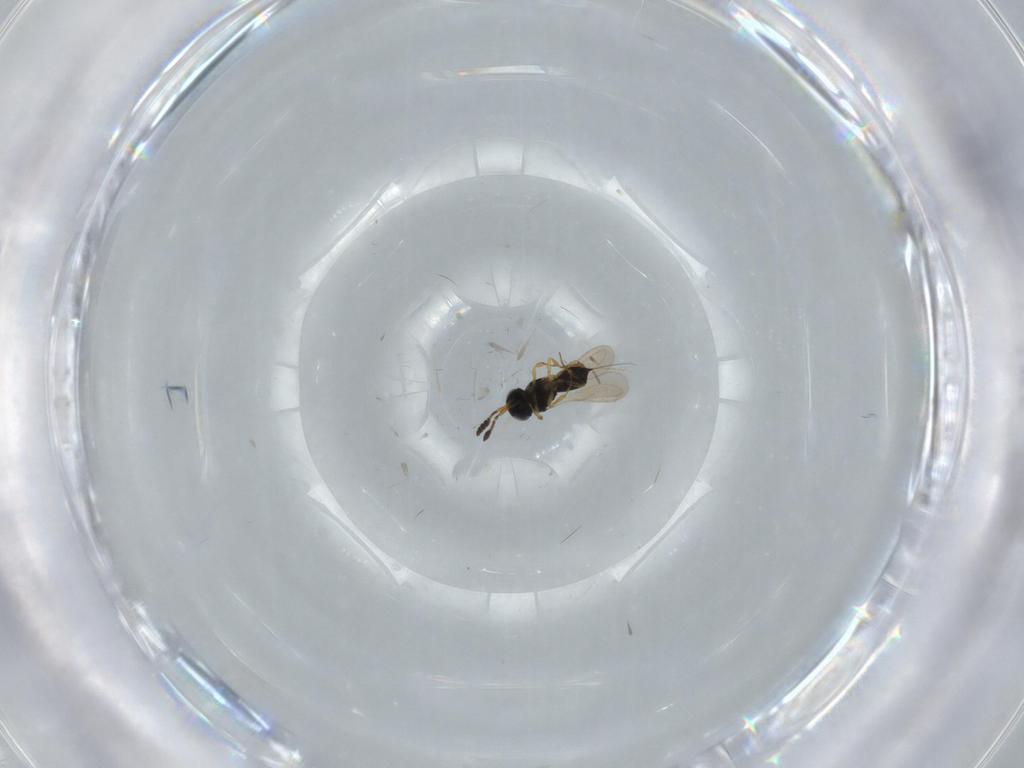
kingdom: Animalia
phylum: Arthropoda
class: Insecta
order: Hymenoptera
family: Scelionidae
